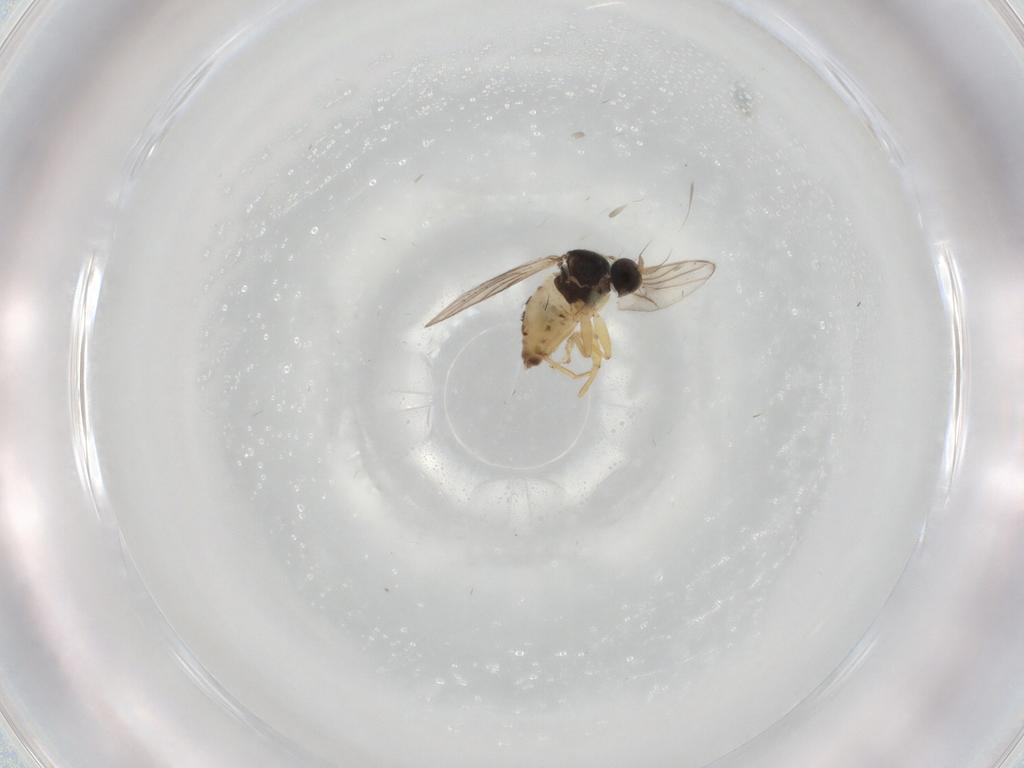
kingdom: Animalia
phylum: Arthropoda
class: Insecta
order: Diptera
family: Hybotidae
